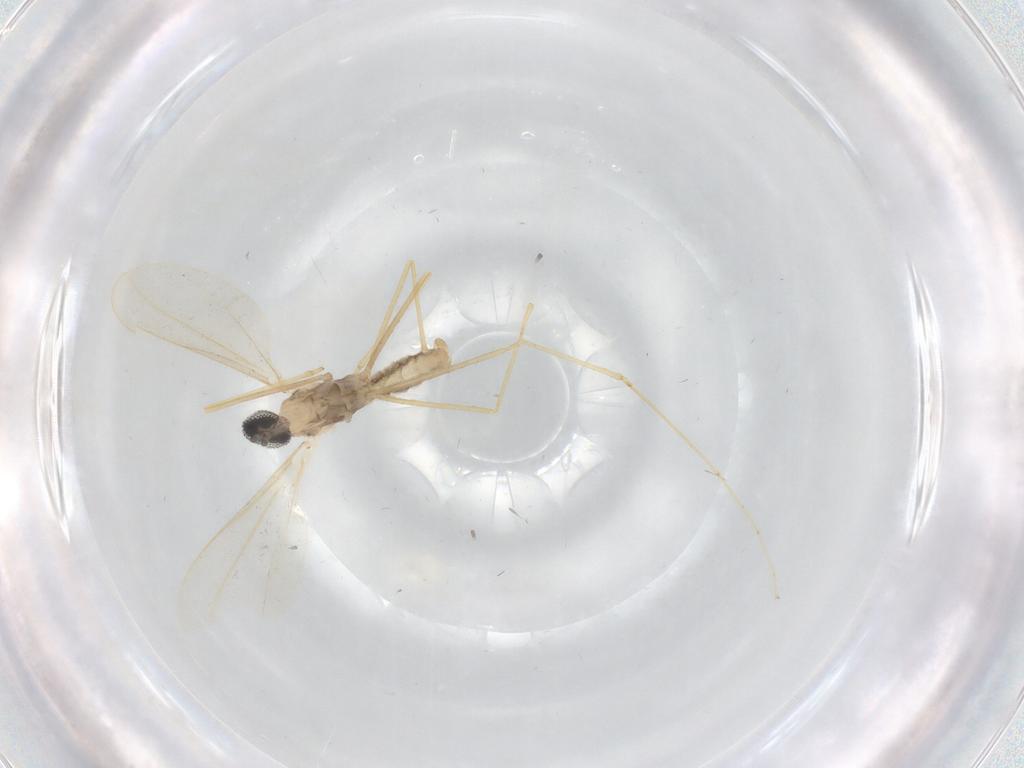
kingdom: Animalia
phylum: Arthropoda
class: Insecta
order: Diptera
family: Cecidomyiidae
